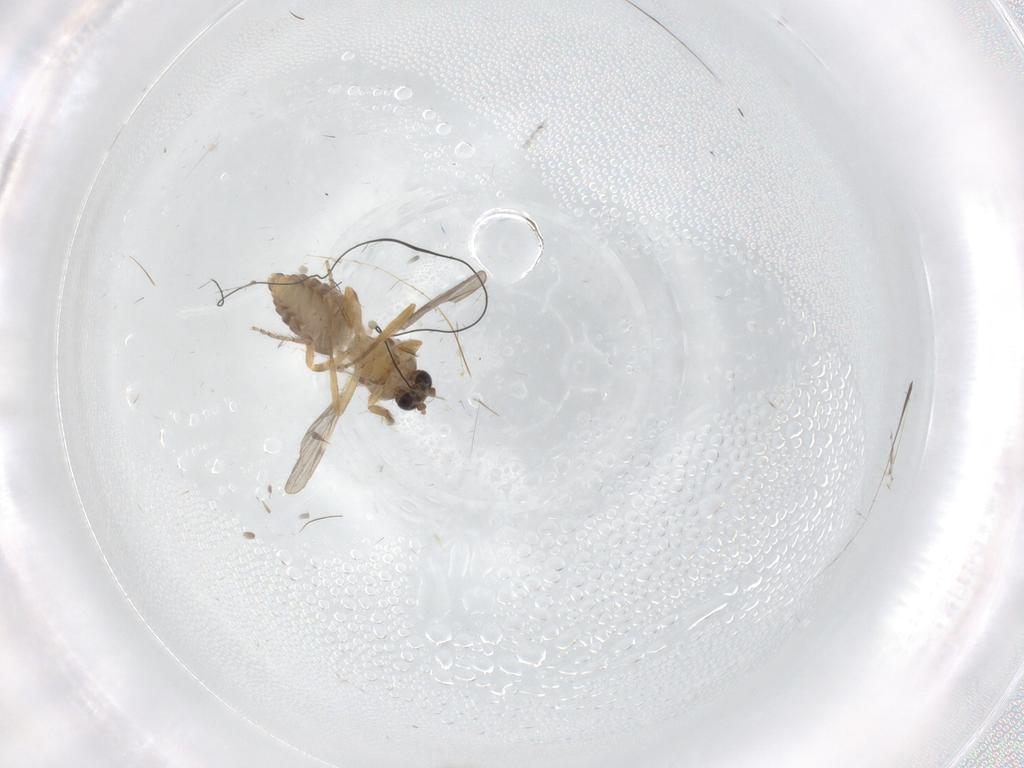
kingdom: Animalia
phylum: Arthropoda
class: Insecta
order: Diptera
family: Ceratopogonidae
